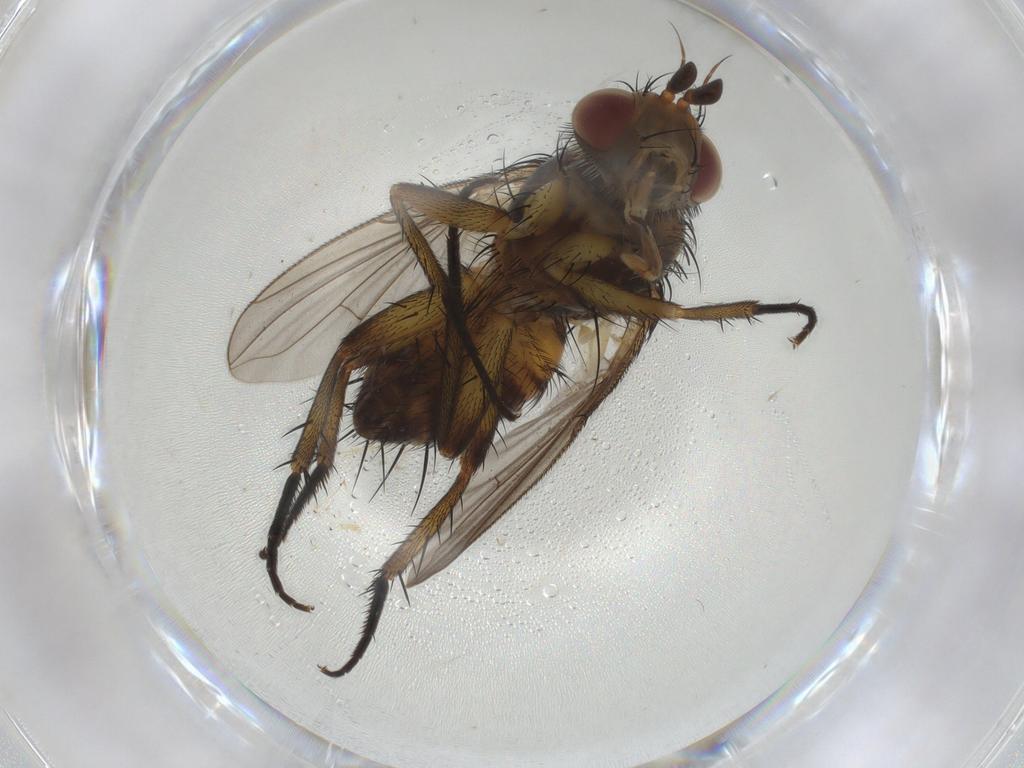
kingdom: Animalia
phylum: Arthropoda
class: Insecta
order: Diptera
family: Tachinidae
